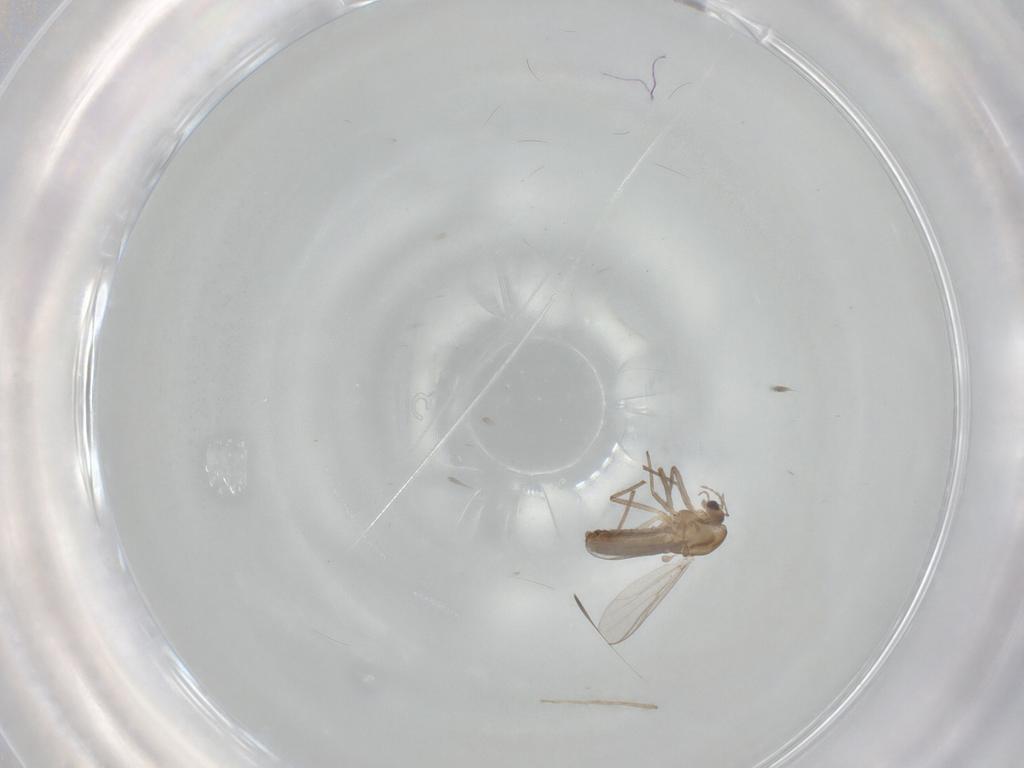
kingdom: Animalia
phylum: Arthropoda
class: Insecta
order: Diptera
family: Chironomidae
